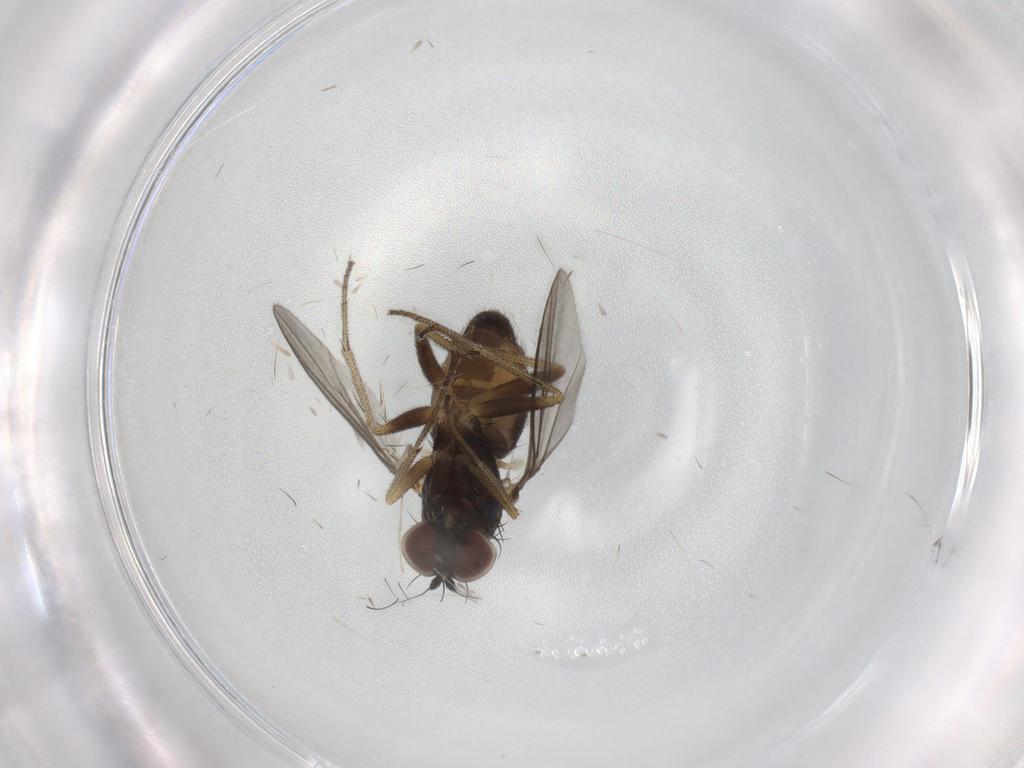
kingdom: Animalia
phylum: Arthropoda
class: Insecta
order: Diptera
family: Dolichopodidae
